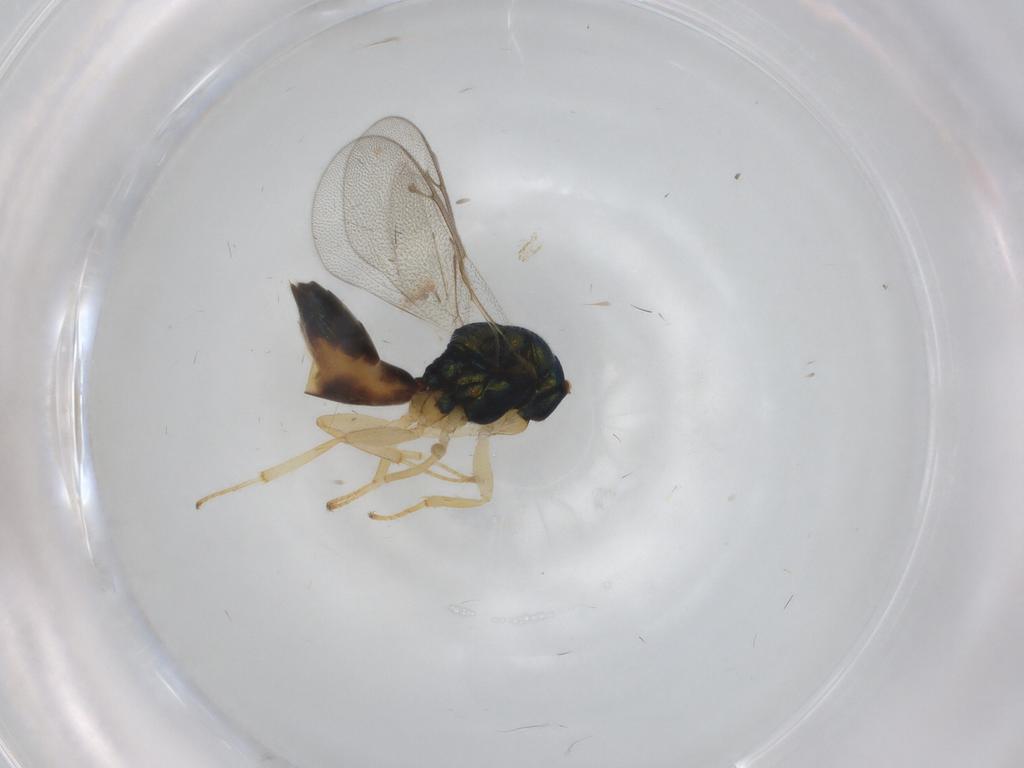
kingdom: Animalia
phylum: Arthropoda
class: Insecta
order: Hymenoptera
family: Pteromalidae
